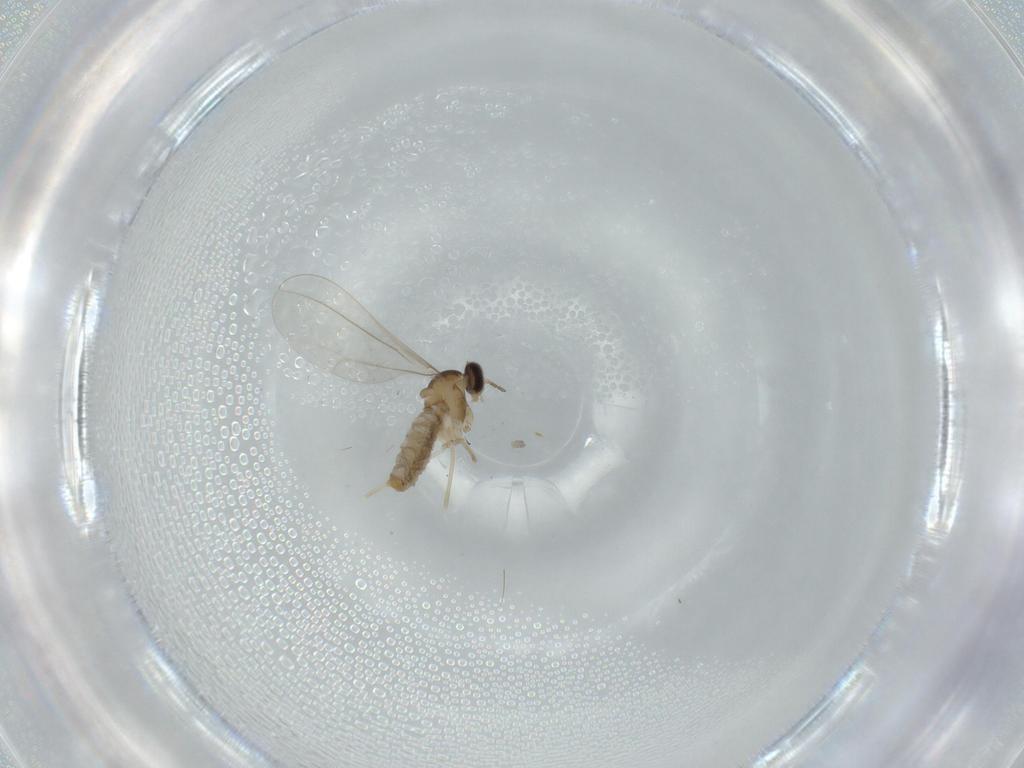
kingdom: Animalia
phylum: Arthropoda
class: Insecta
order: Diptera
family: Cecidomyiidae
